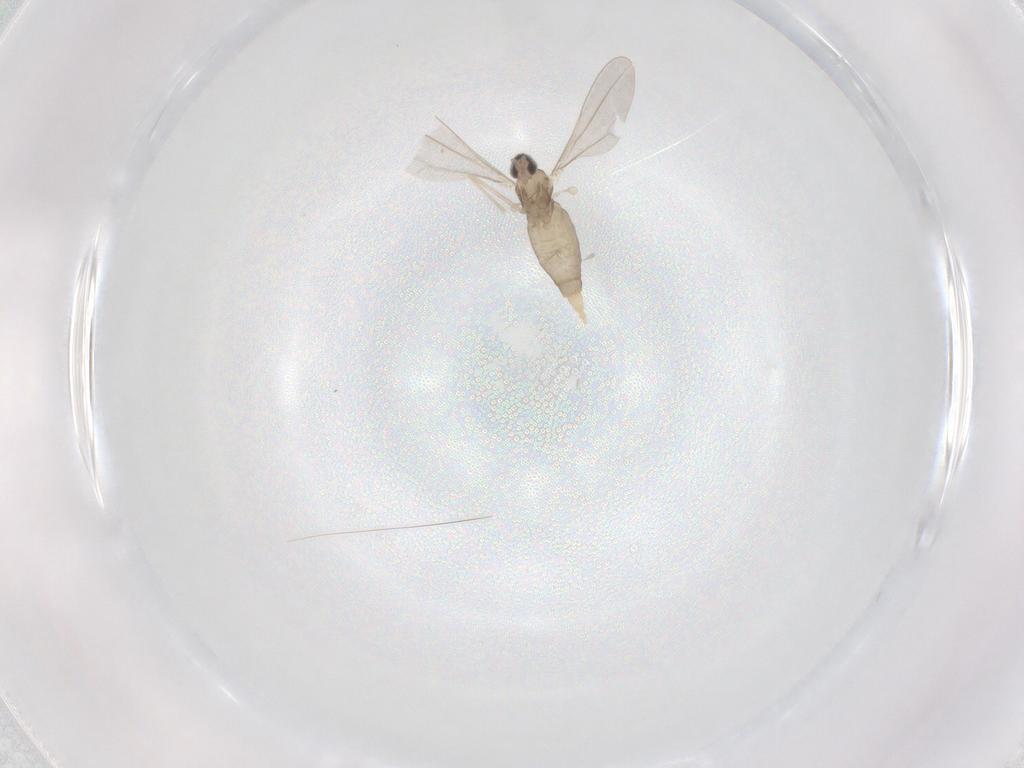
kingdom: Animalia
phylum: Arthropoda
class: Insecta
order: Diptera
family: Cecidomyiidae
